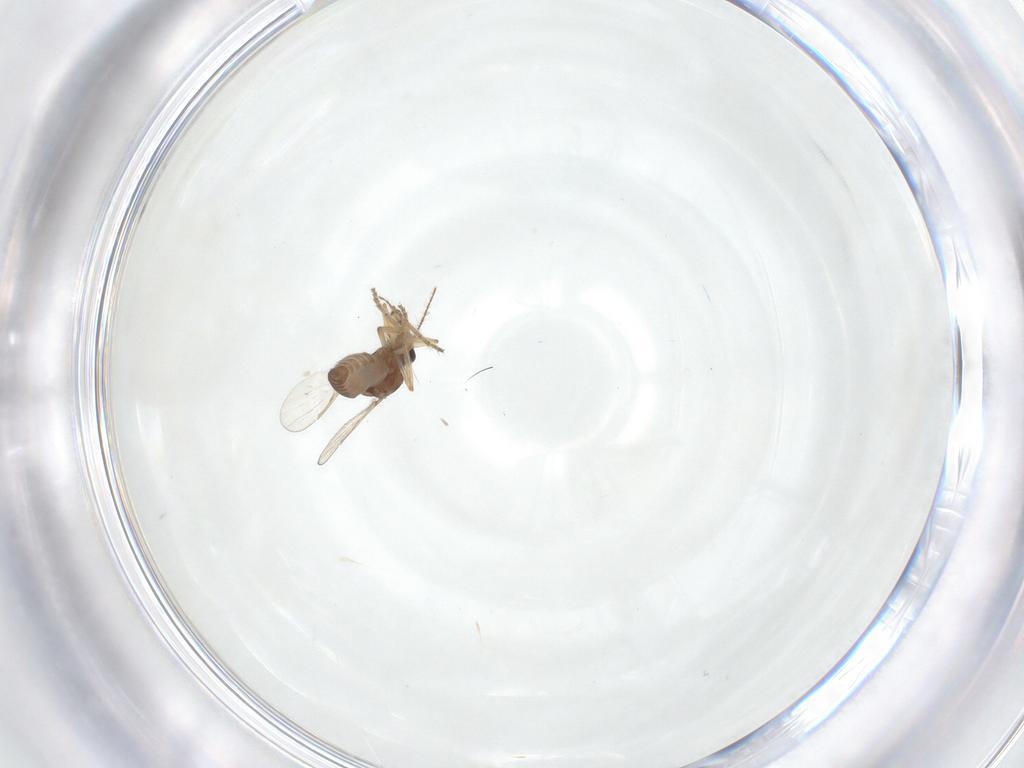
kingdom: Animalia
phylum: Arthropoda
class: Insecta
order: Diptera
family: Ceratopogonidae
